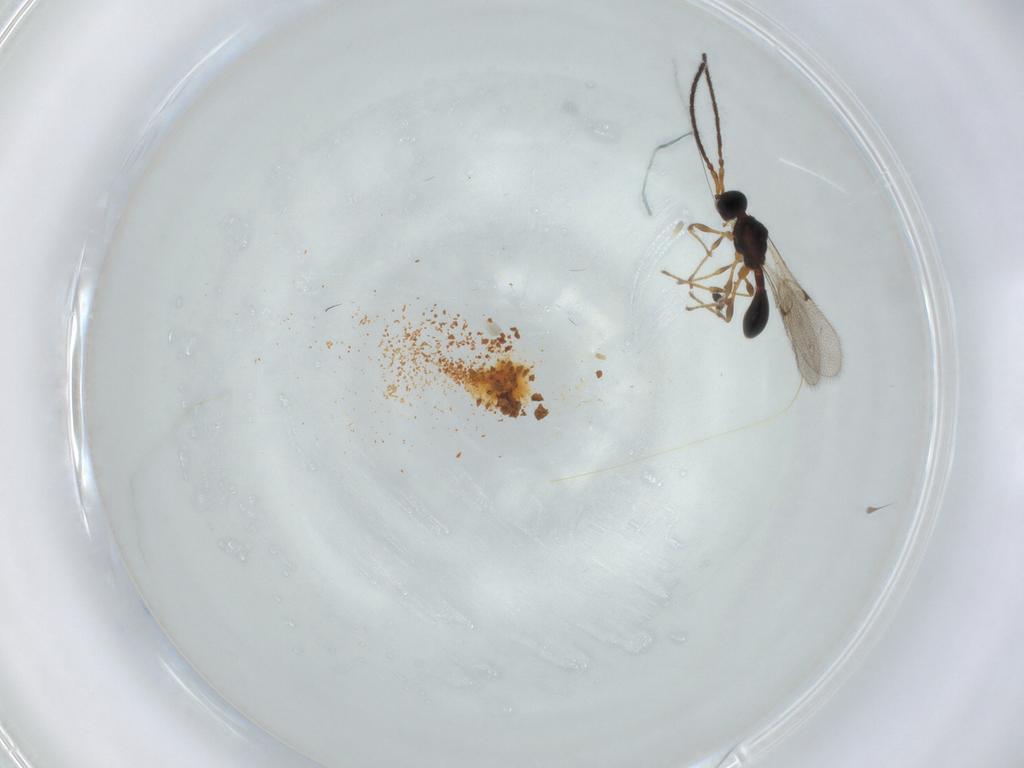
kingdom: Animalia
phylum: Arthropoda
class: Insecta
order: Hymenoptera
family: Diapriidae
